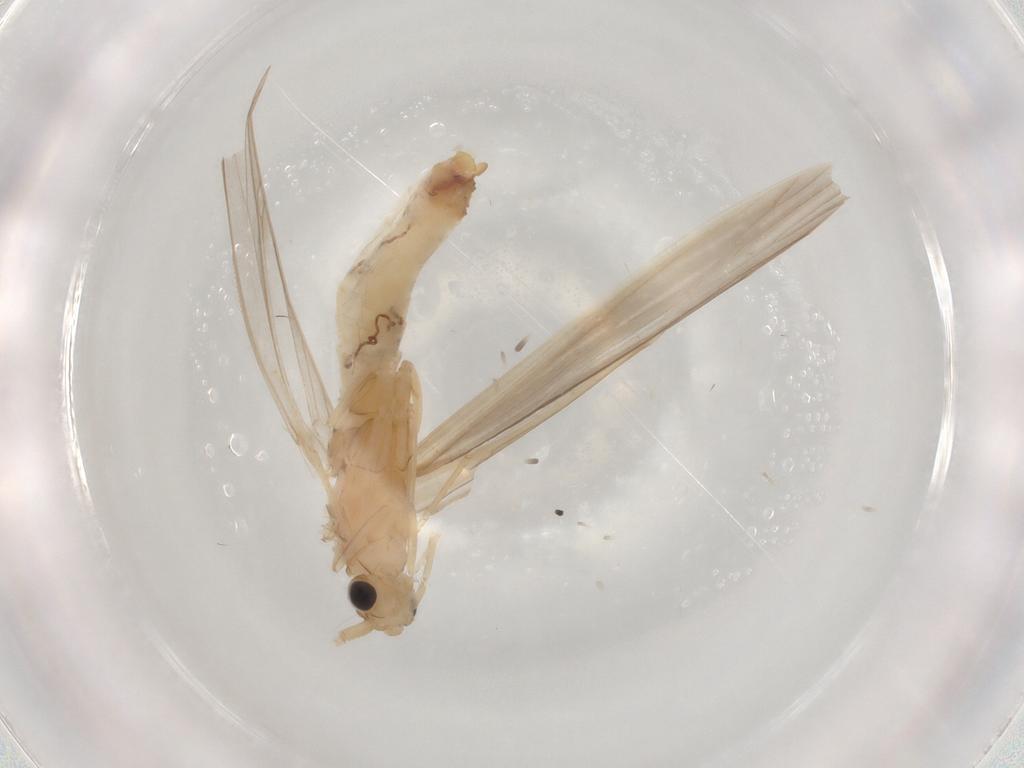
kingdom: Animalia
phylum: Arthropoda
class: Insecta
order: Trichoptera
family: Leptoceridae
